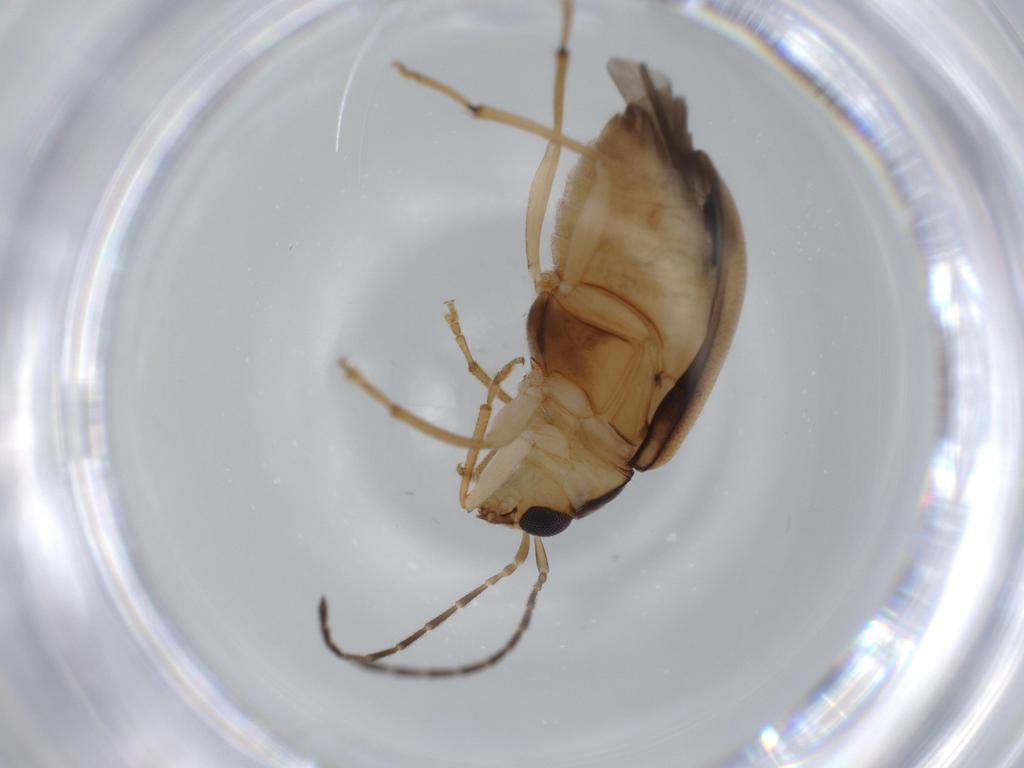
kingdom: Animalia
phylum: Arthropoda
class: Insecta
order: Coleoptera
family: Chrysomelidae
